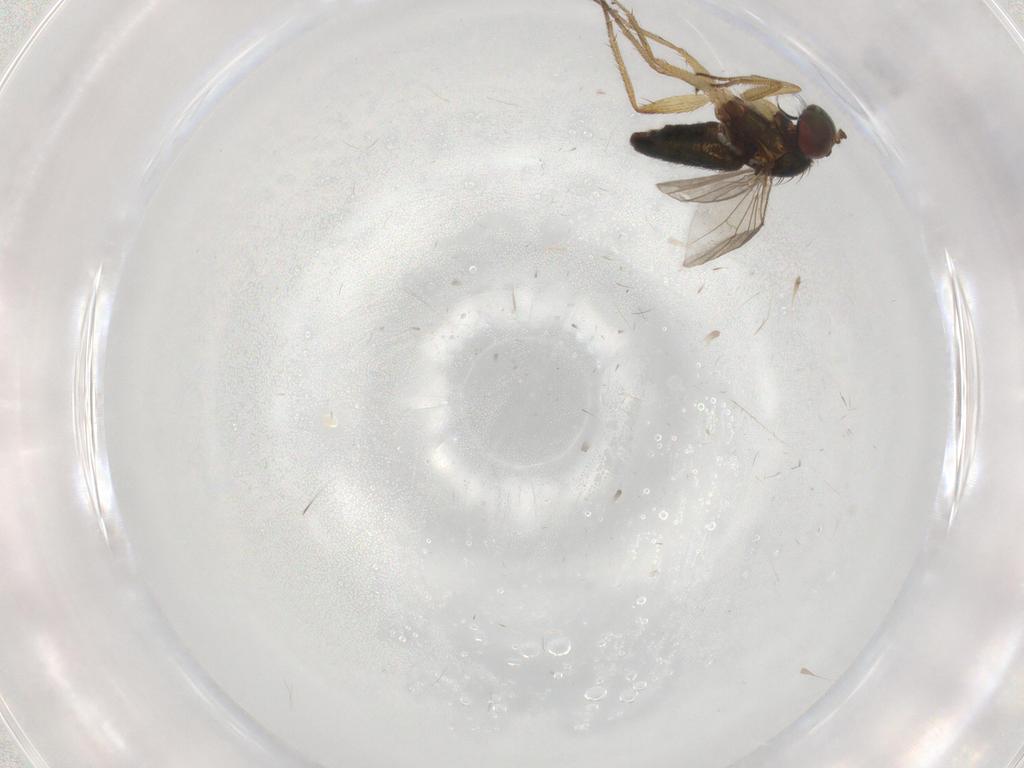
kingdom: Animalia
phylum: Arthropoda
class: Insecta
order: Diptera
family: Dolichopodidae
